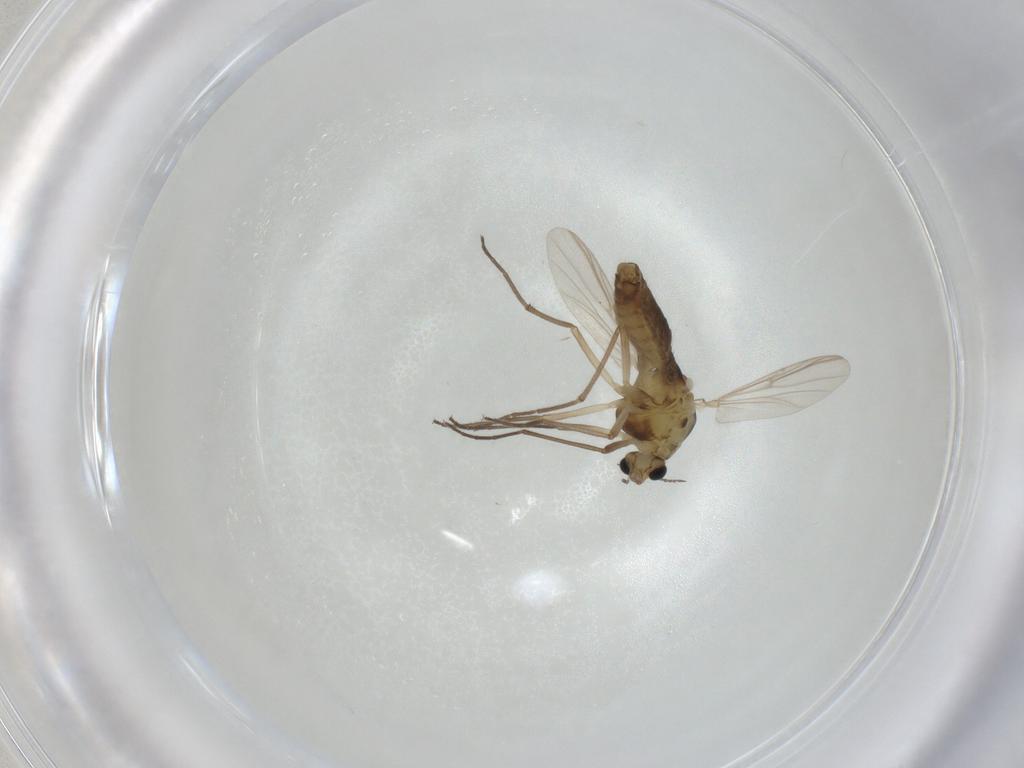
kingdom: Animalia
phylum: Arthropoda
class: Insecta
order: Diptera
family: Chironomidae
